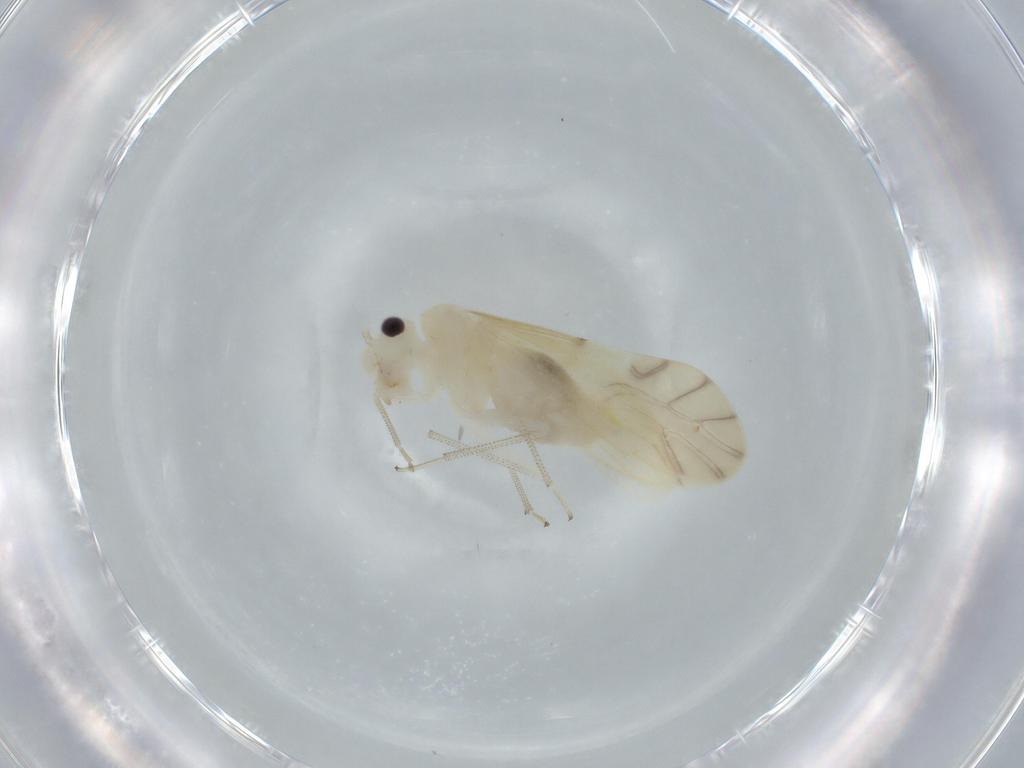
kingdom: Animalia
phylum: Arthropoda
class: Insecta
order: Psocodea
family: Caeciliusidae
